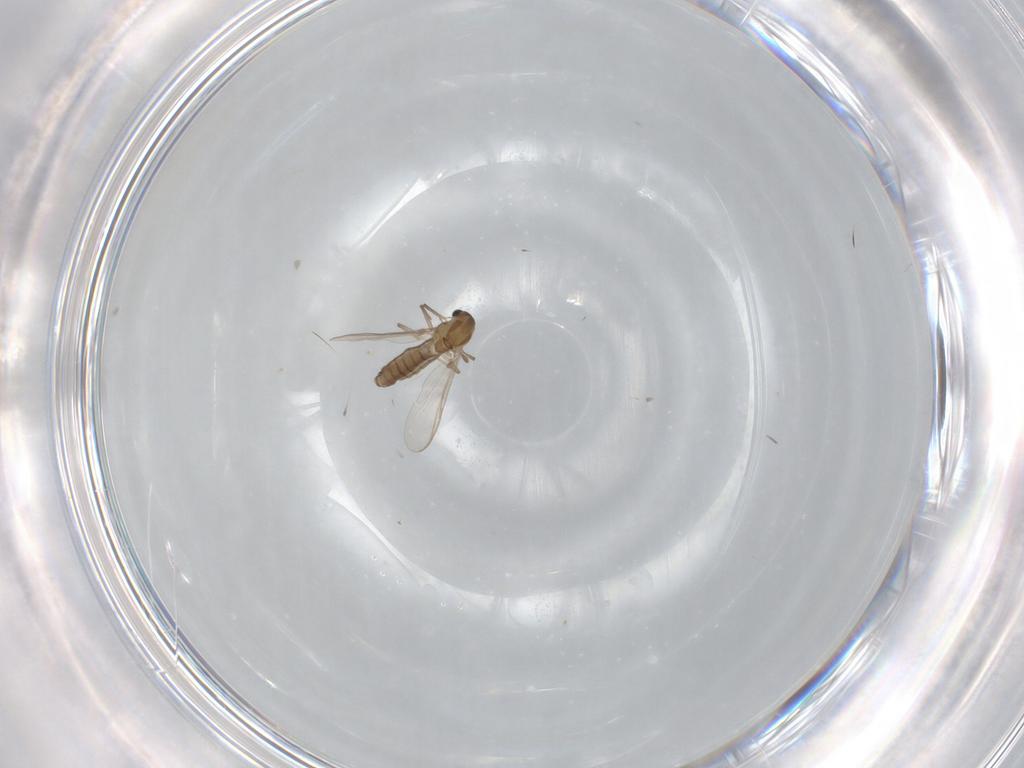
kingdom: Animalia
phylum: Arthropoda
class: Insecta
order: Diptera
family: Chironomidae
